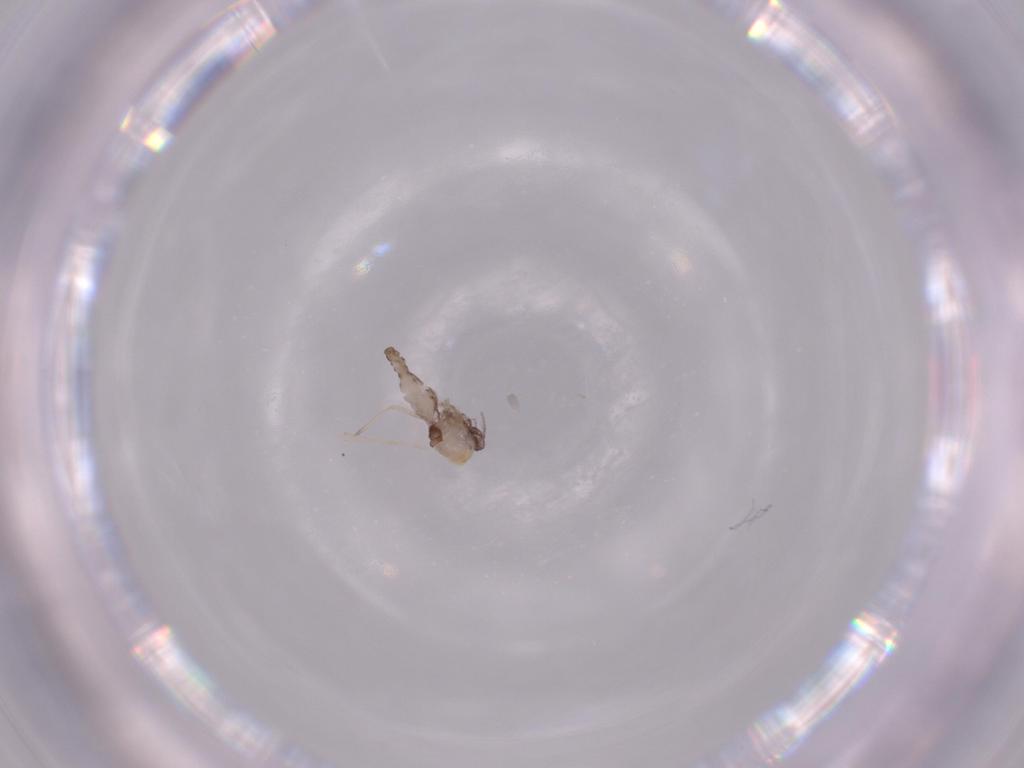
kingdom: Animalia
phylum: Arthropoda
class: Insecta
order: Diptera
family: Ceratopogonidae
